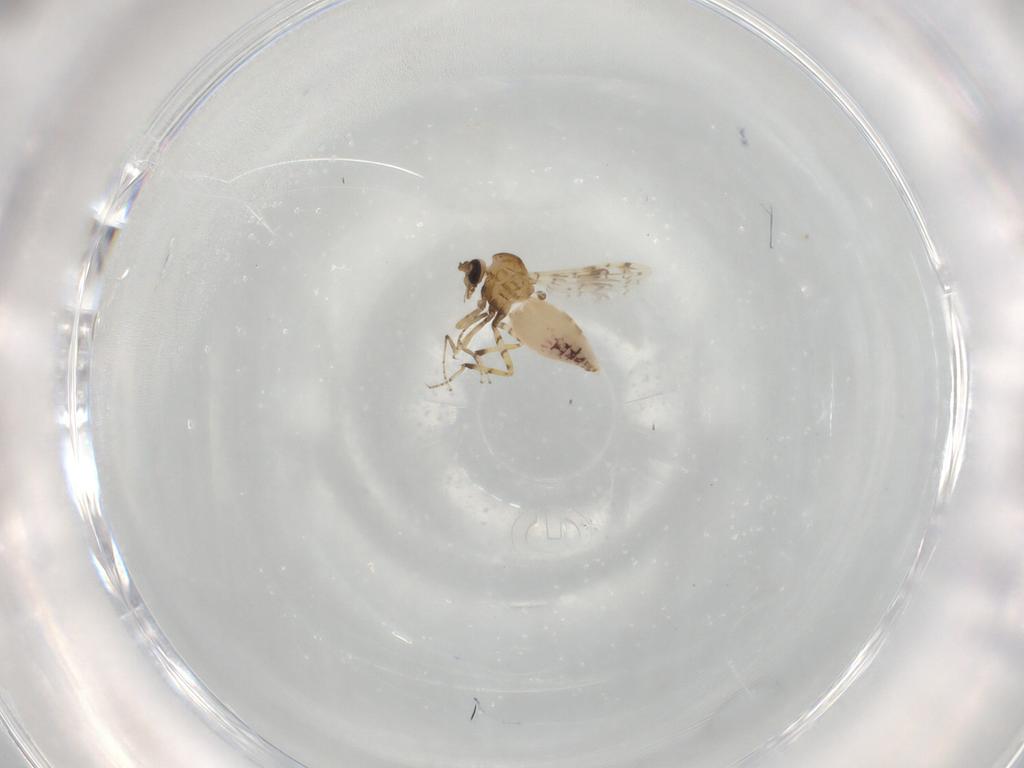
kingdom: Animalia
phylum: Arthropoda
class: Insecta
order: Diptera
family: Ceratopogonidae
